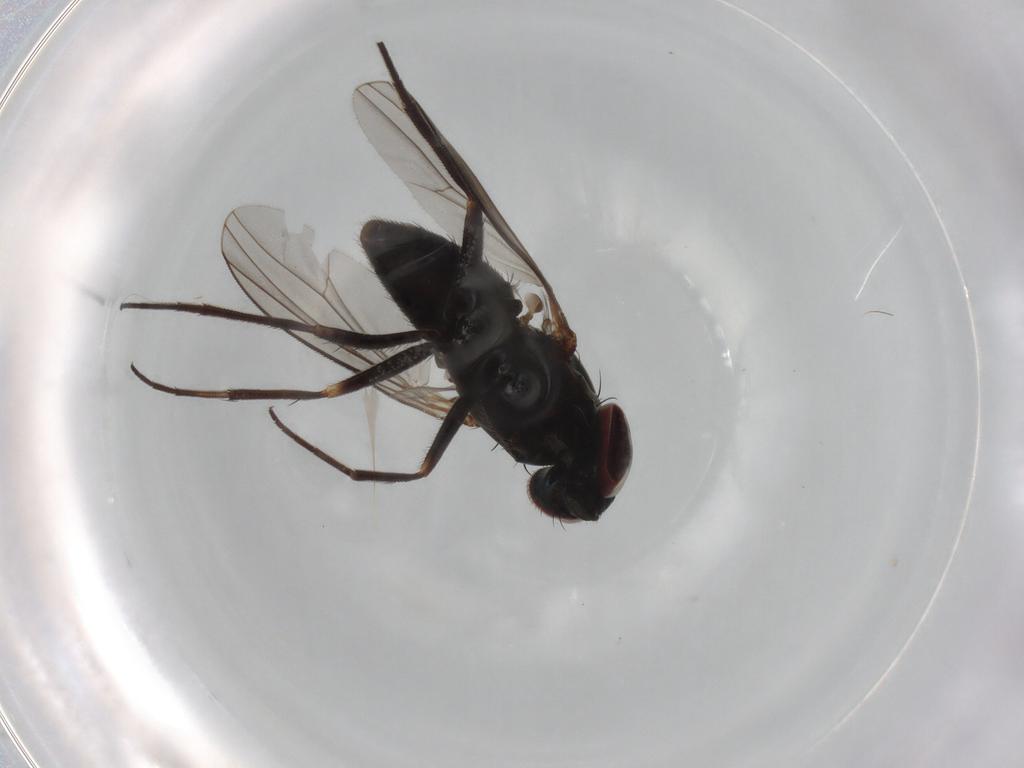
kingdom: Animalia
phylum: Arthropoda
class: Insecta
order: Diptera
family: Dolichopodidae
